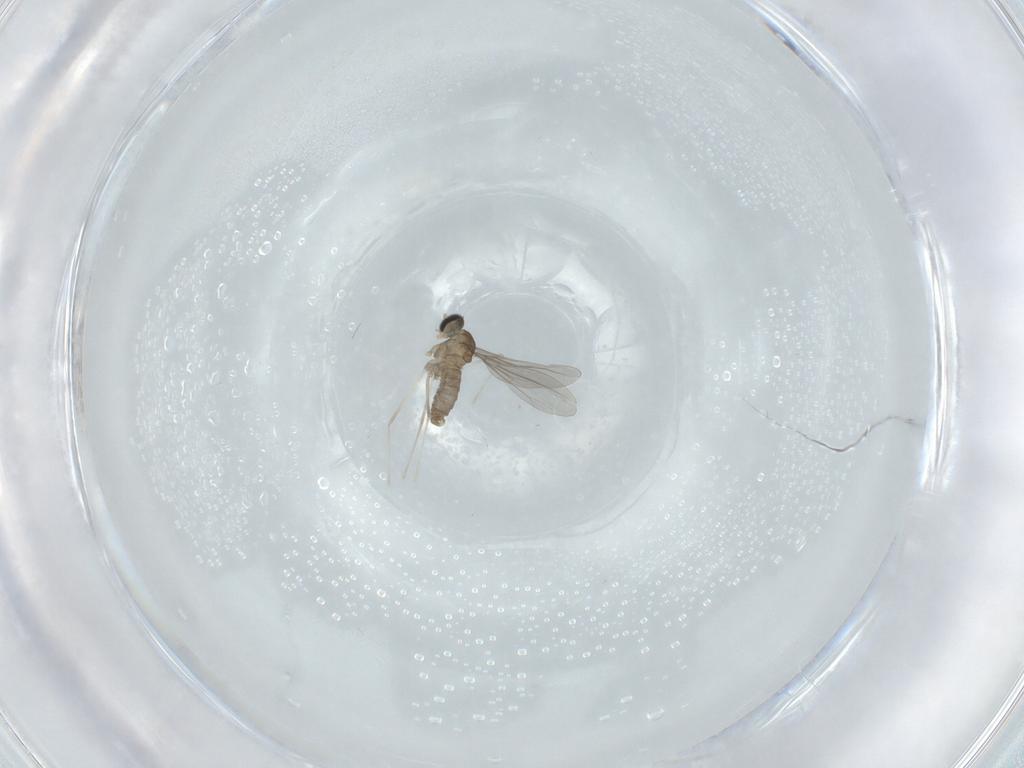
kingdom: Animalia
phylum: Arthropoda
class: Insecta
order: Diptera
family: Cecidomyiidae
